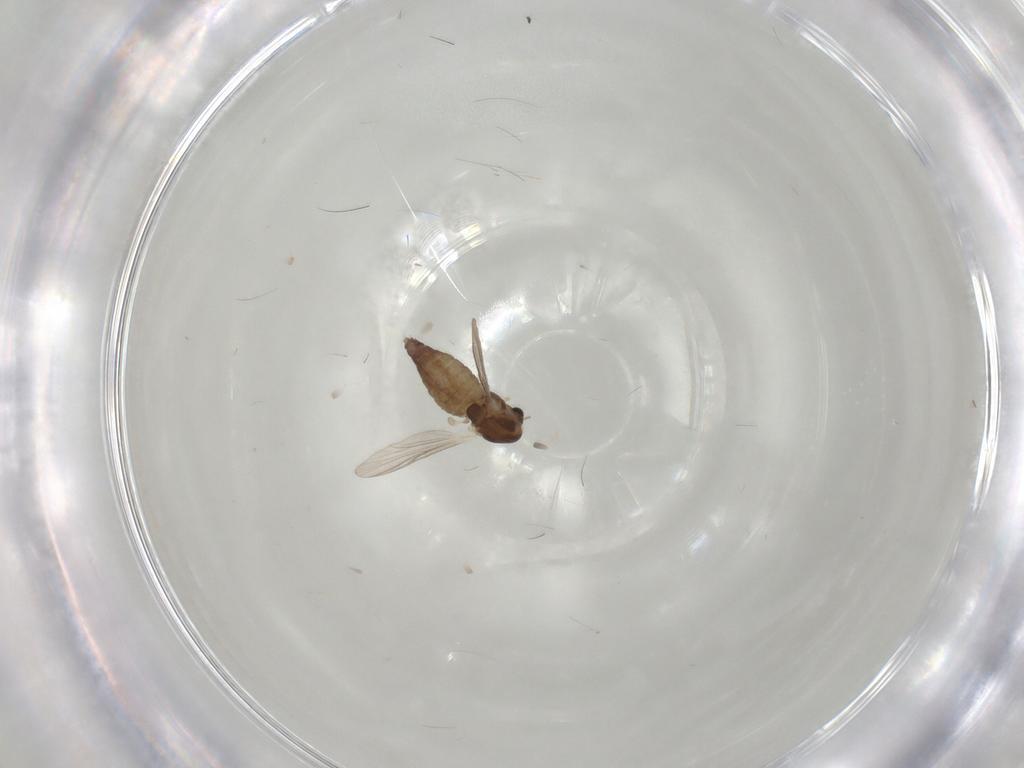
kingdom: Animalia
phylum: Arthropoda
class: Insecta
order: Diptera
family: Chironomidae
